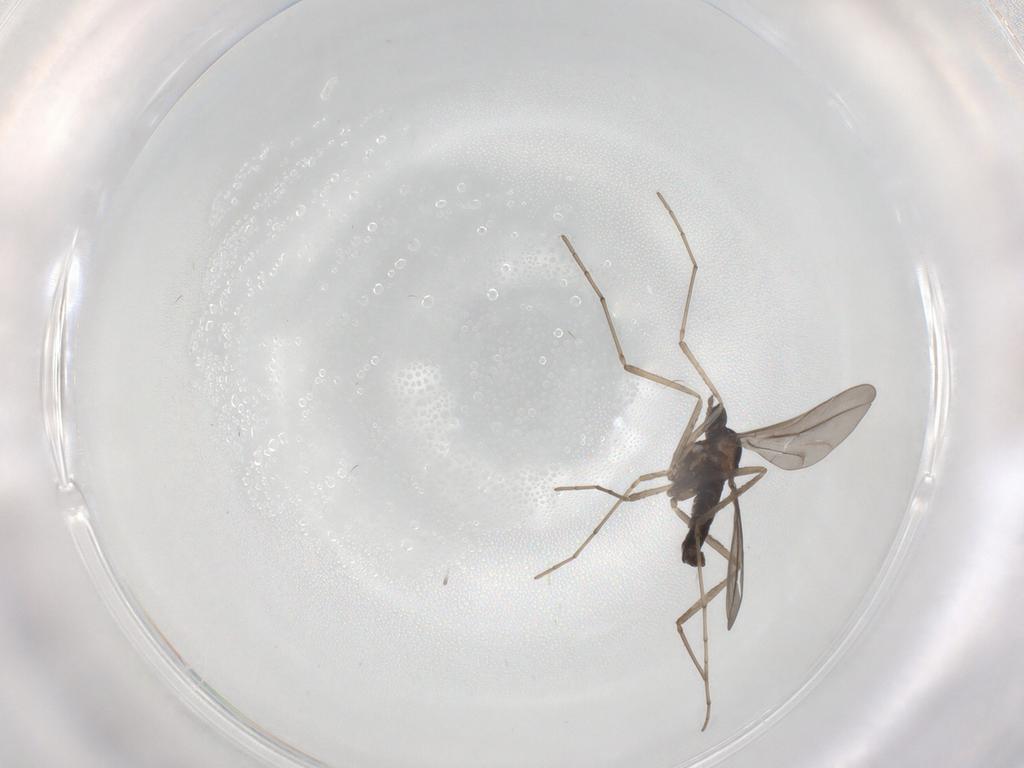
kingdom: Animalia
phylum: Arthropoda
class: Insecta
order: Diptera
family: Cecidomyiidae
